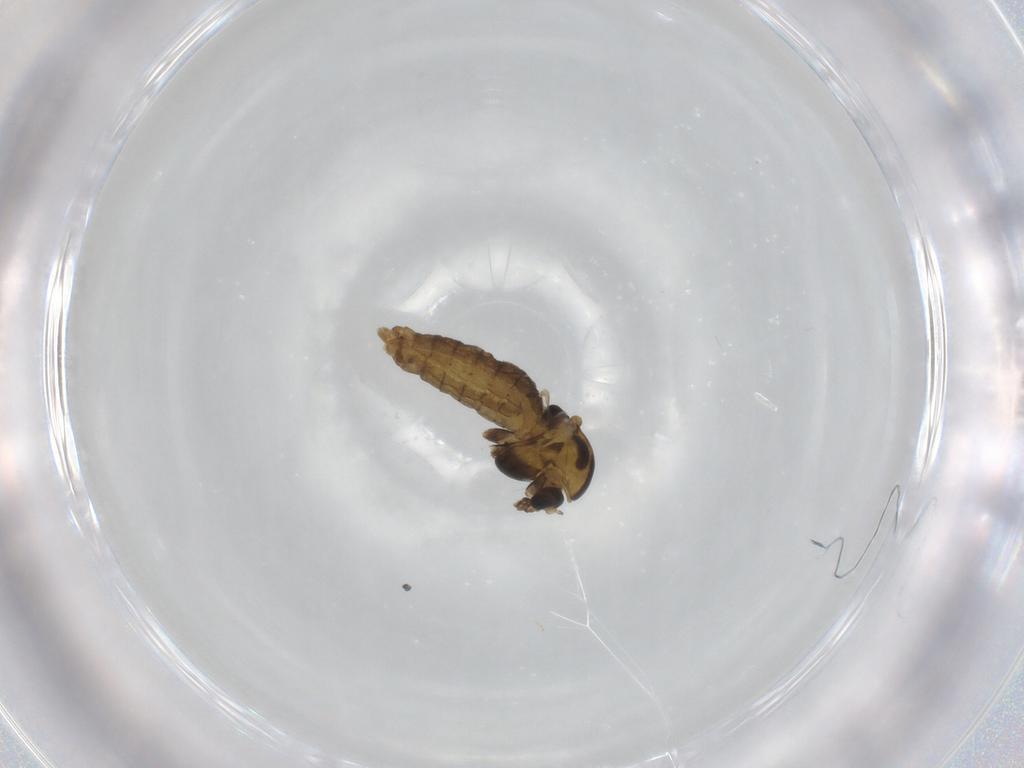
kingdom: Animalia
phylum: Arthropoda
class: Insecta
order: Diptera
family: Chironomidae
